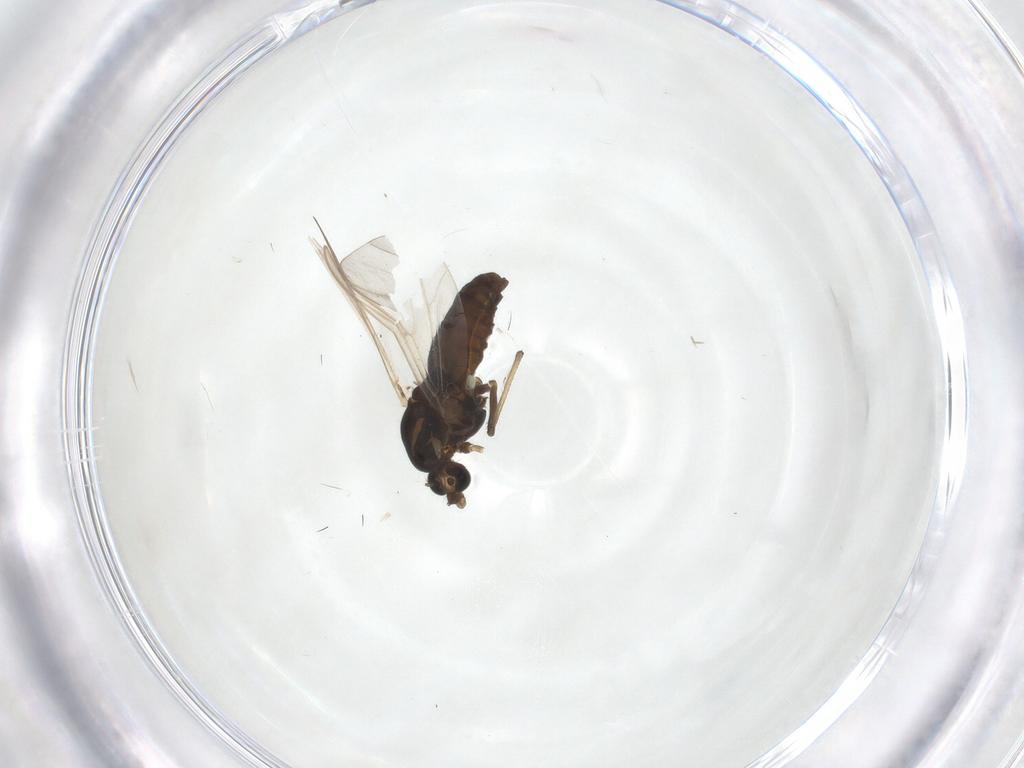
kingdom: Animalia
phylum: Arthropoda
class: Insecta
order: Diptera
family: Chironomidae
